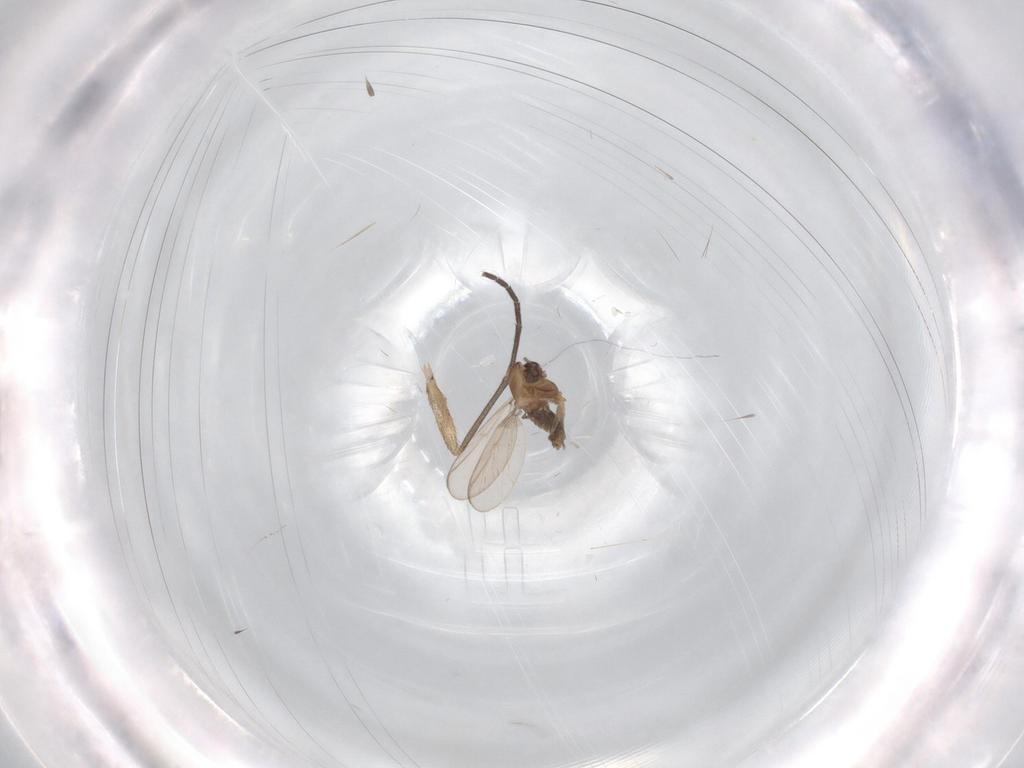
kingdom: Animalia
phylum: Arthropoda
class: Insecta
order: Diptera
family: Chironomidae
